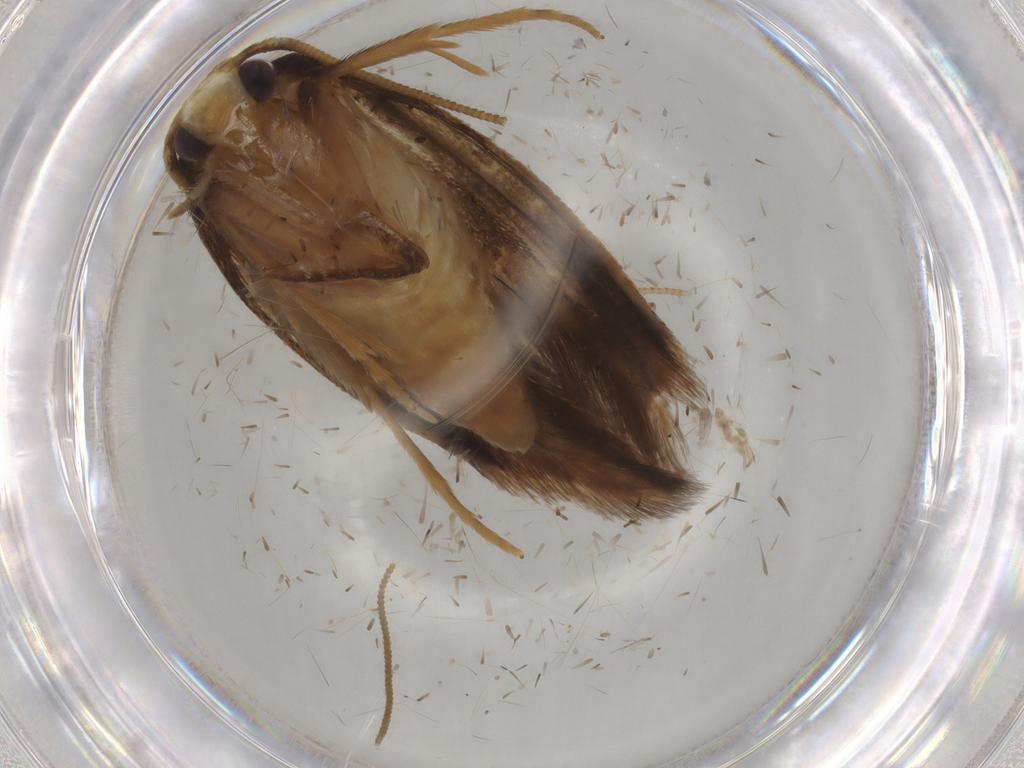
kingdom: Animalia
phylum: Arthropoda
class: Insecta
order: Lepidoptera
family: Tineidae
